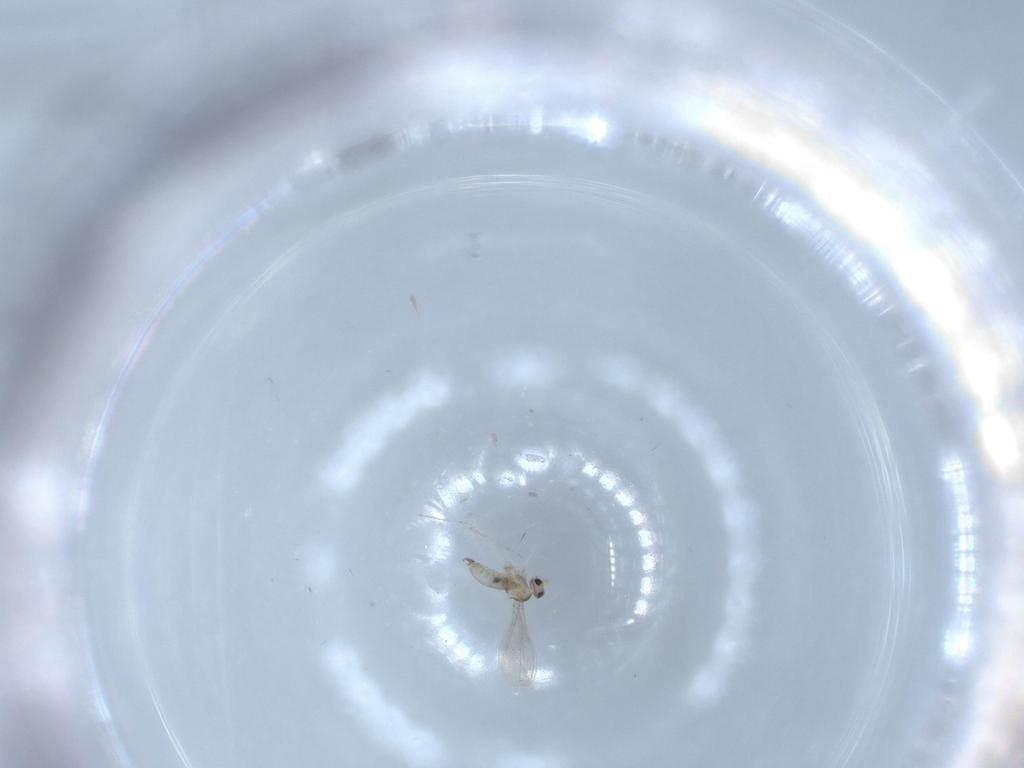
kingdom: Animalia
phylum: Arthropoda
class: Insecta
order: Diptera
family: Cecidomyiidae
